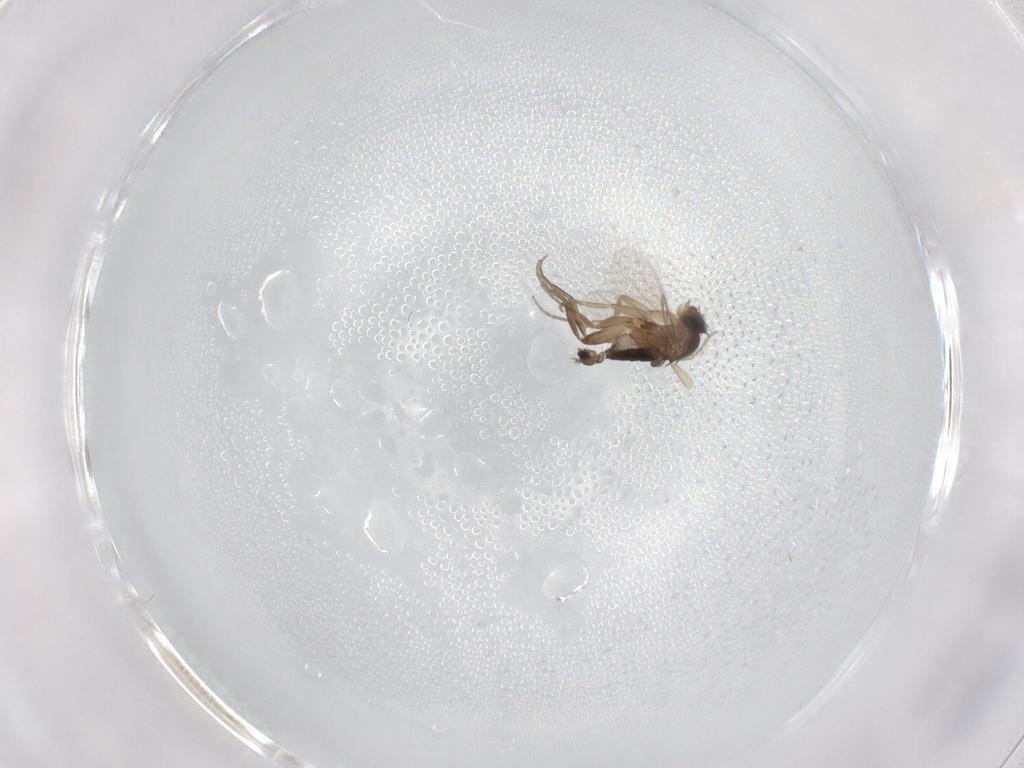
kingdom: Animalia
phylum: Arthropoda
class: Insecta
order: Diptera
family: Phoridae
